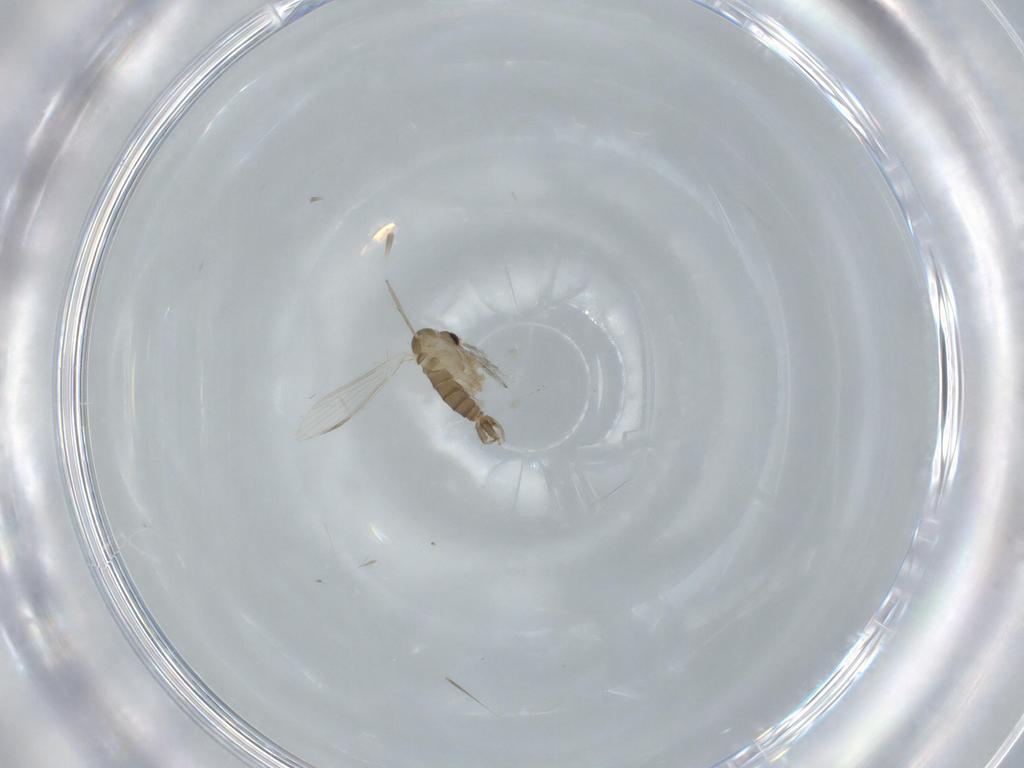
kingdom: Animalia
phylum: Arthropoda
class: Insecta
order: Diptera
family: Psychodidae
